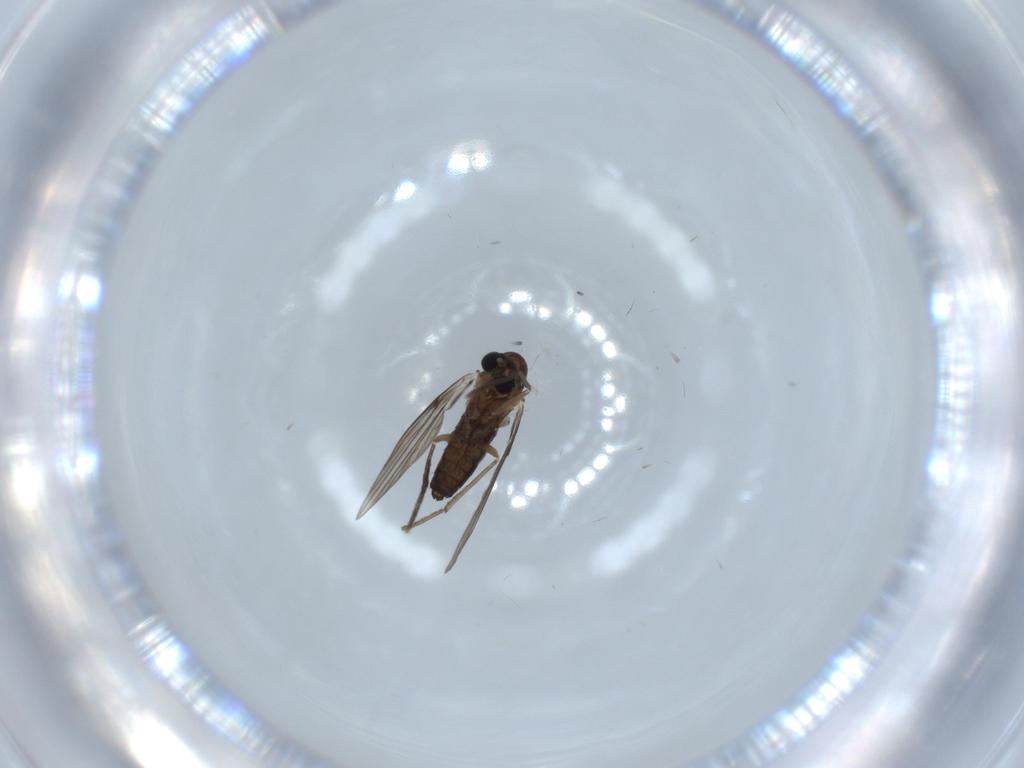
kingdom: Animalia
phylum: Arthropoda
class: Insecta
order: Diptera
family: Psychodidae
